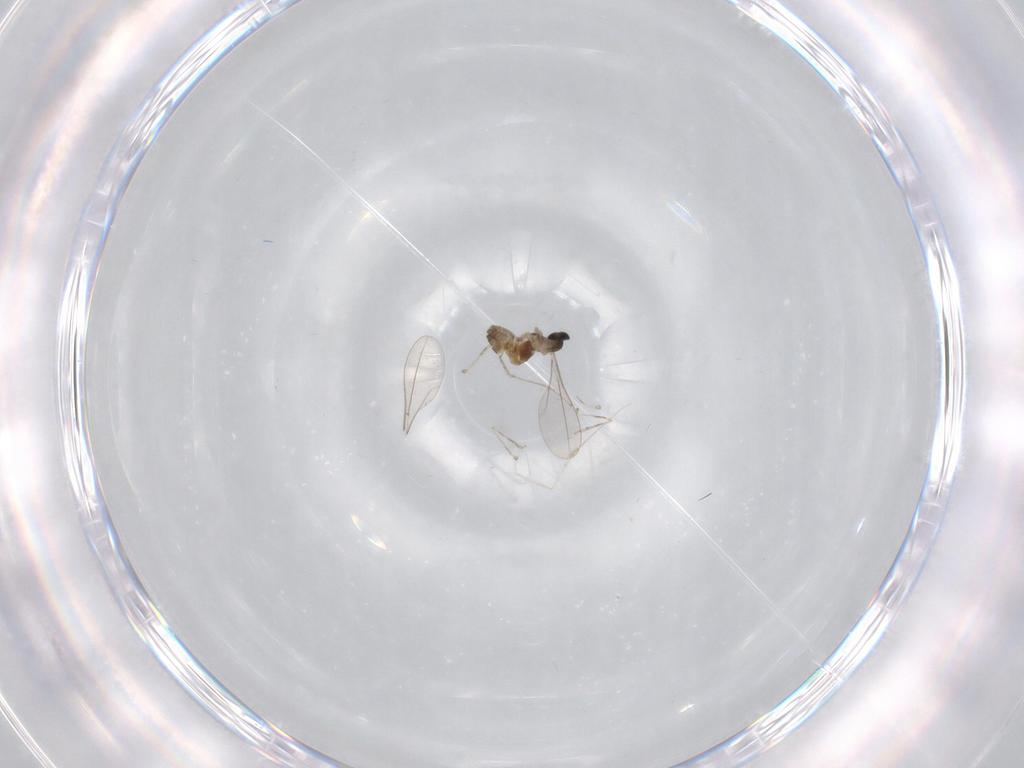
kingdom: Animalia
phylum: Arthropoda
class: Insecta
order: Diptera
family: Cecidomyiidae
